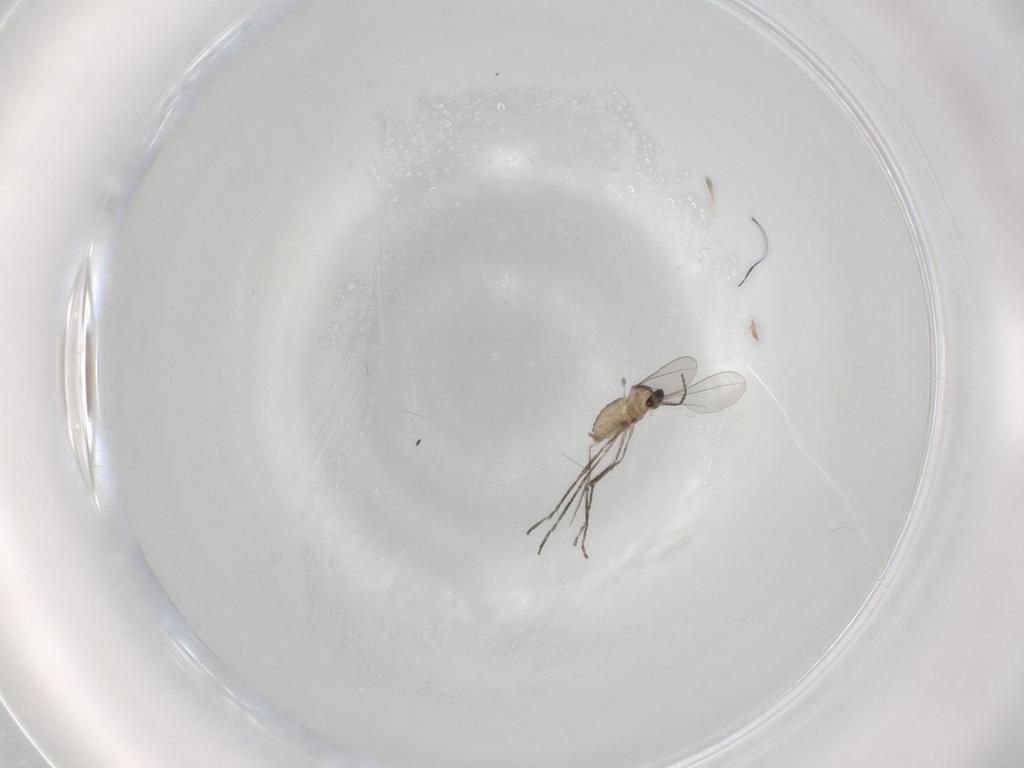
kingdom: Animalia
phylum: Arthropoda
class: Insecta
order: Diptera
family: Cecidomyiidae
